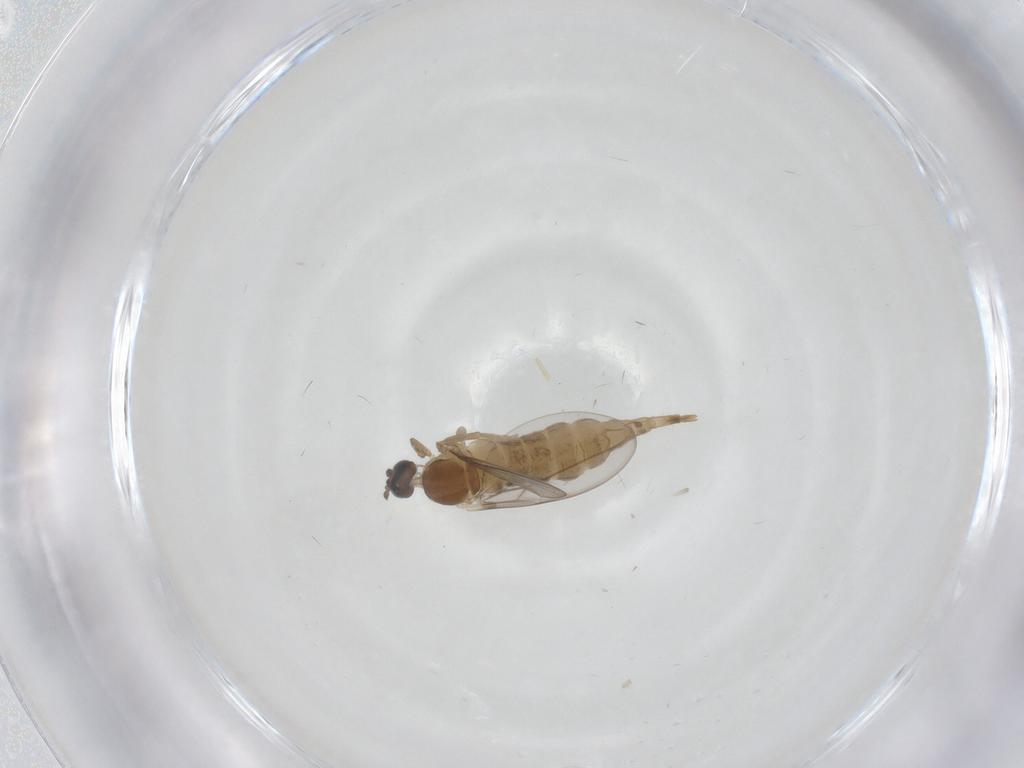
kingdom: Animalia
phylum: Arthropoda
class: Insecta
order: Diptera
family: Cecidomyiidae
